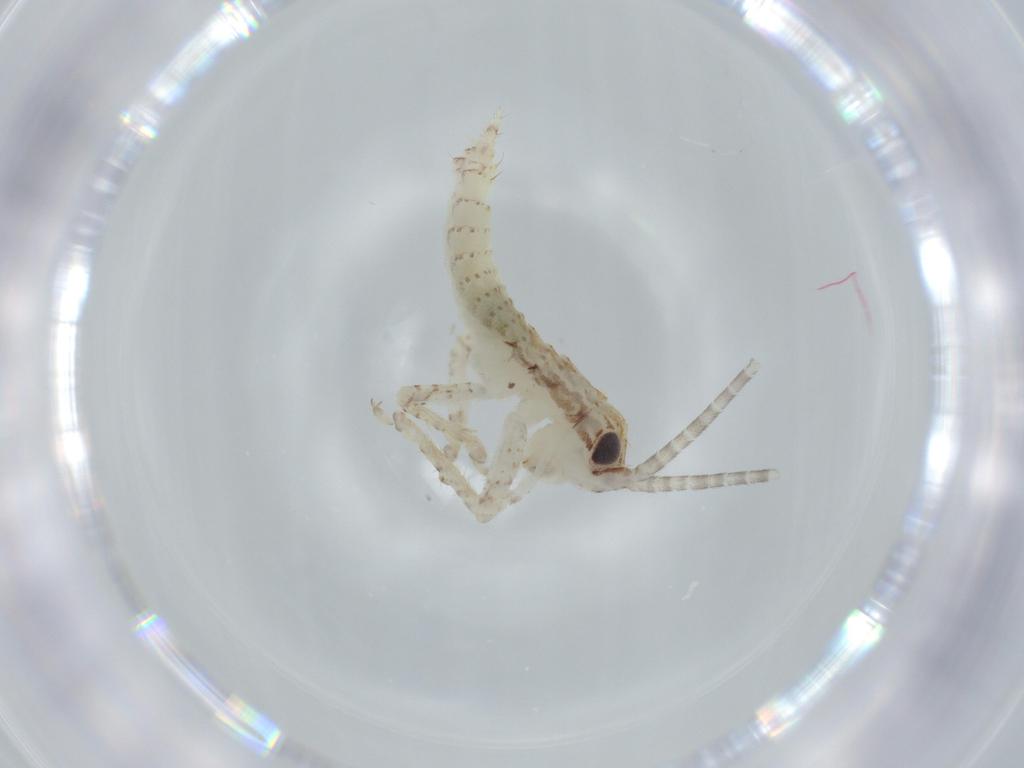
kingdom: Animalia
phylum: Arthropoda
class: Insecta
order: Orthoptera
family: Gryllidae
